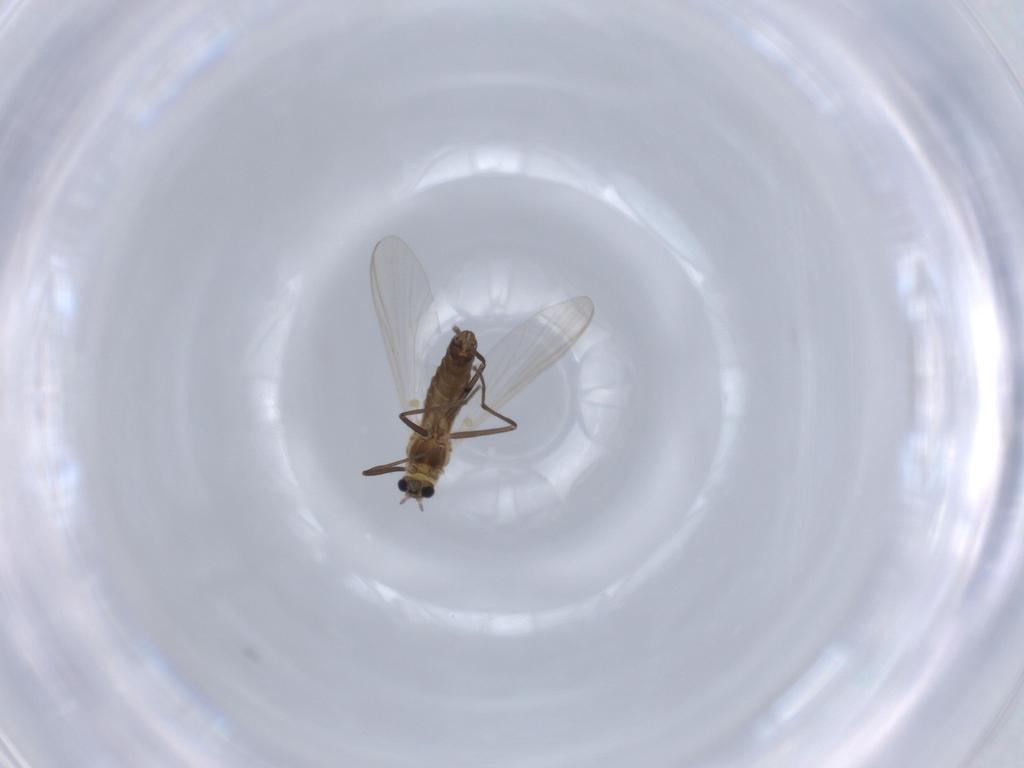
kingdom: Animalia
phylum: Arthropoda
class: Insecta
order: Diptera
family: Chironomidae
